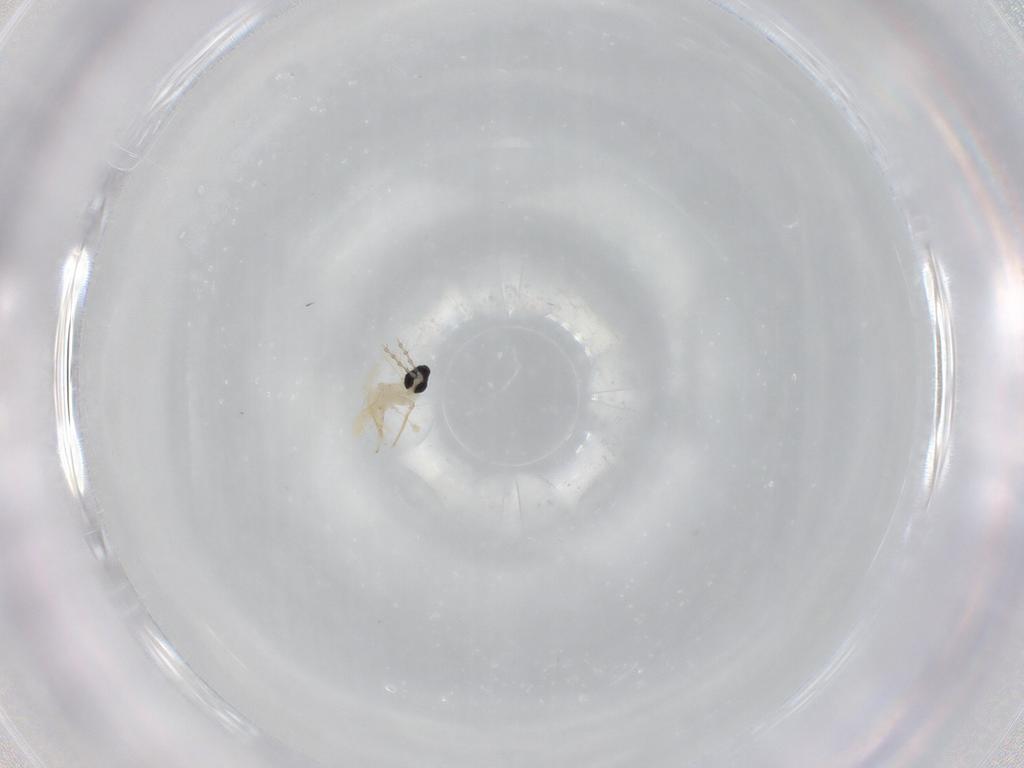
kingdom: Animalia
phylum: Arthropoda
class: Insecta
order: Diptera
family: Cecidomyiidae
